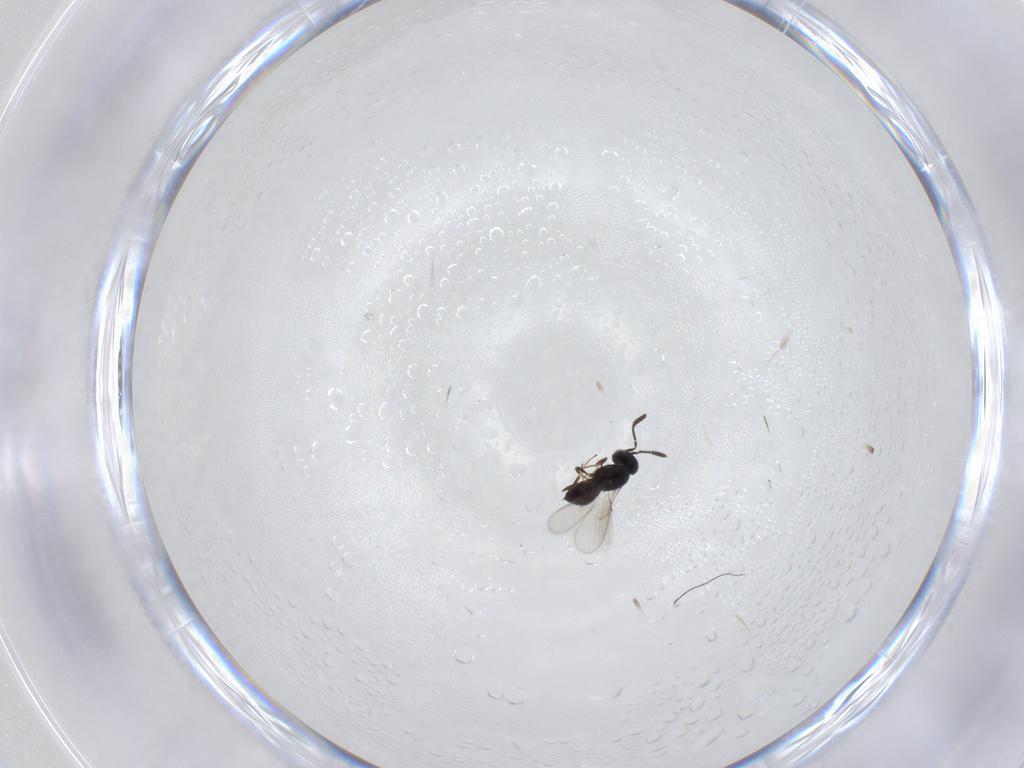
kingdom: Animalia
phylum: Arthropoda
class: Insecta
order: Hymenoptera
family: Scelionidae
